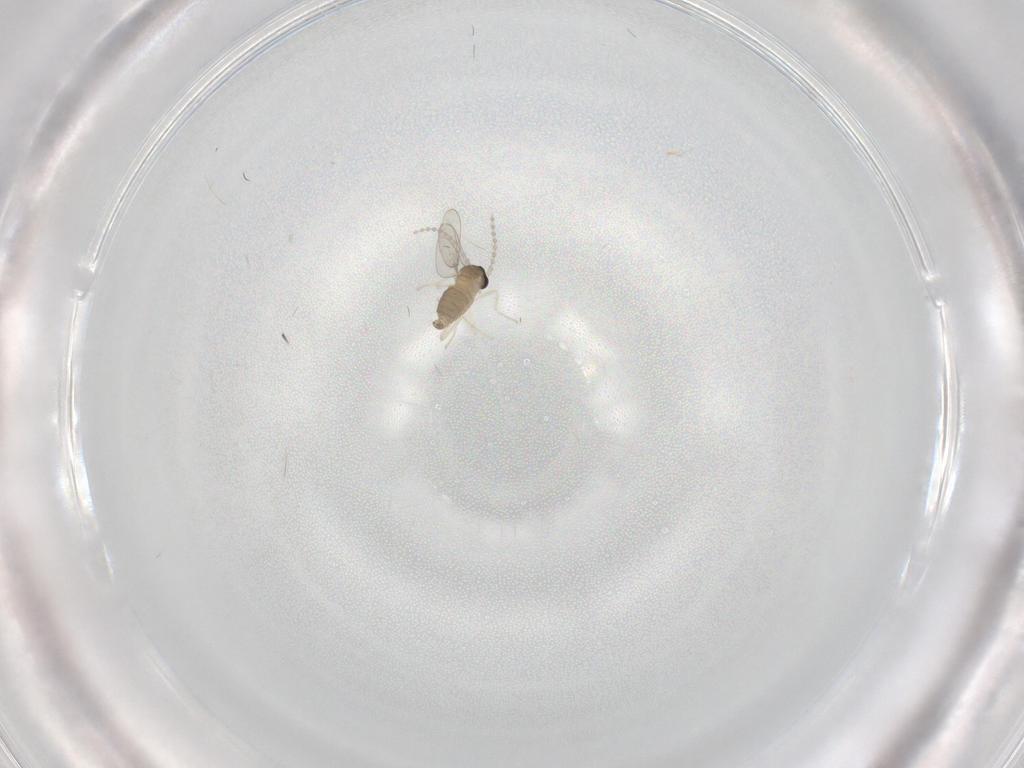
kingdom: Animalia
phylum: Arthropoda
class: Insecta
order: Diptera
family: Cecidomyiidae
